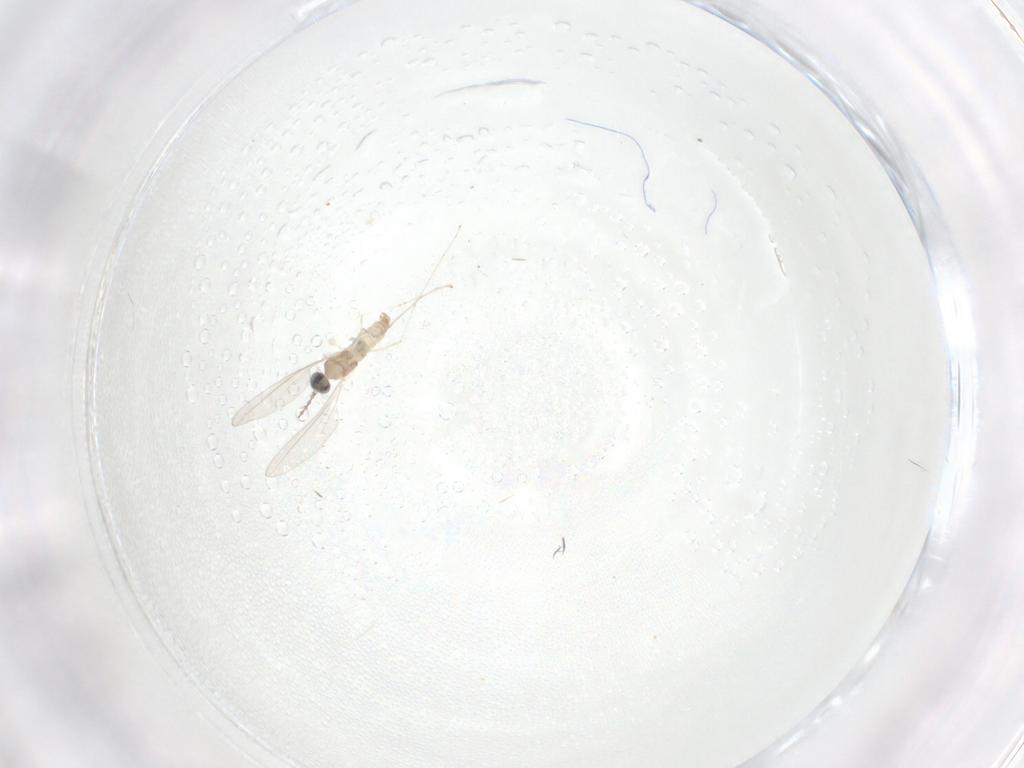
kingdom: Animalia
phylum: Arthropoda
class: Insecta
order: Diptera
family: Cecidomyiidae
